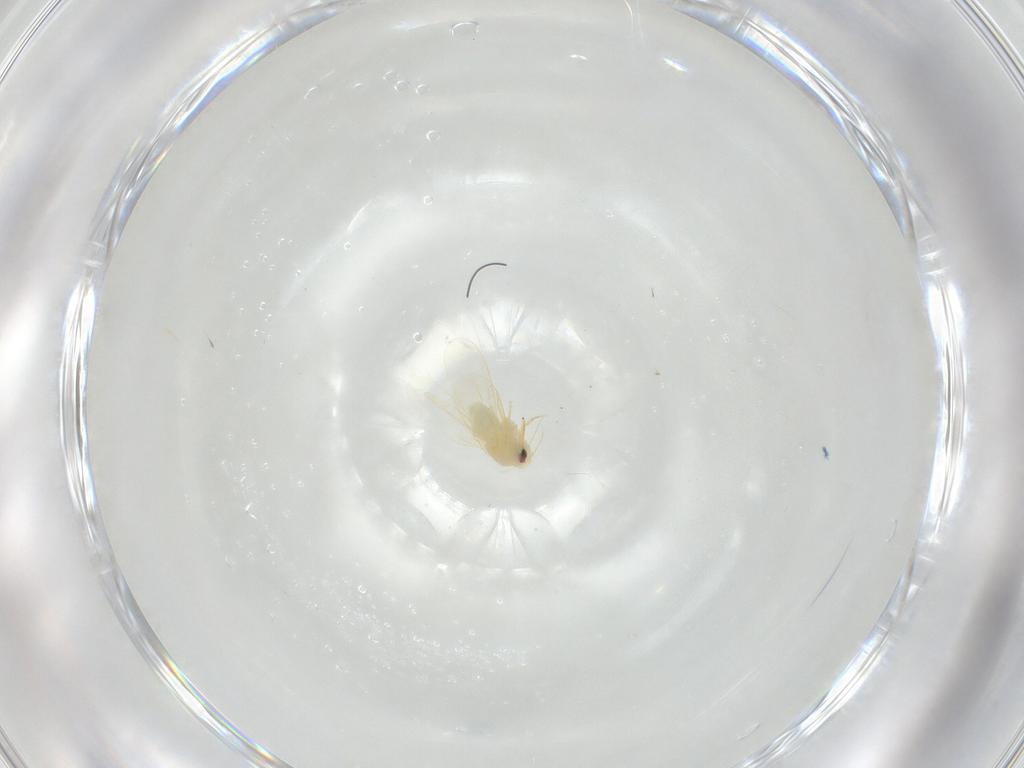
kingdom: Animalia
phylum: Arthropoda
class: Insecta
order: Hemiptera
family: Aleyrodidae
